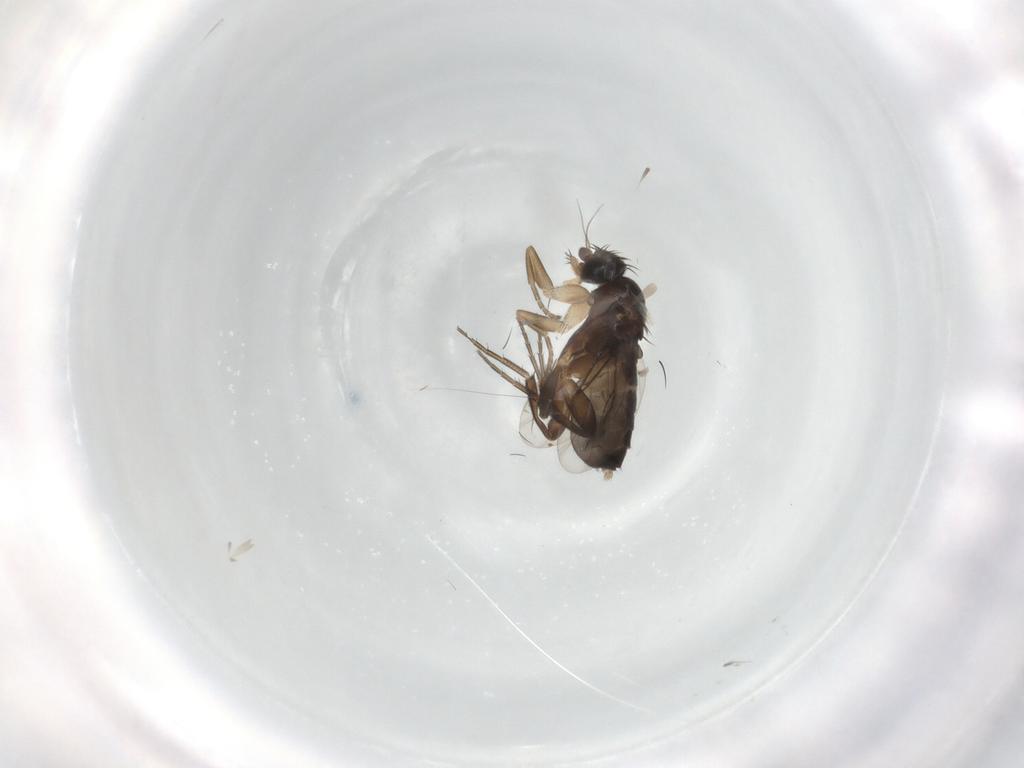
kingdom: Animalia
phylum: Arthropoda
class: Insecta
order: Diptera
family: Phoridae
